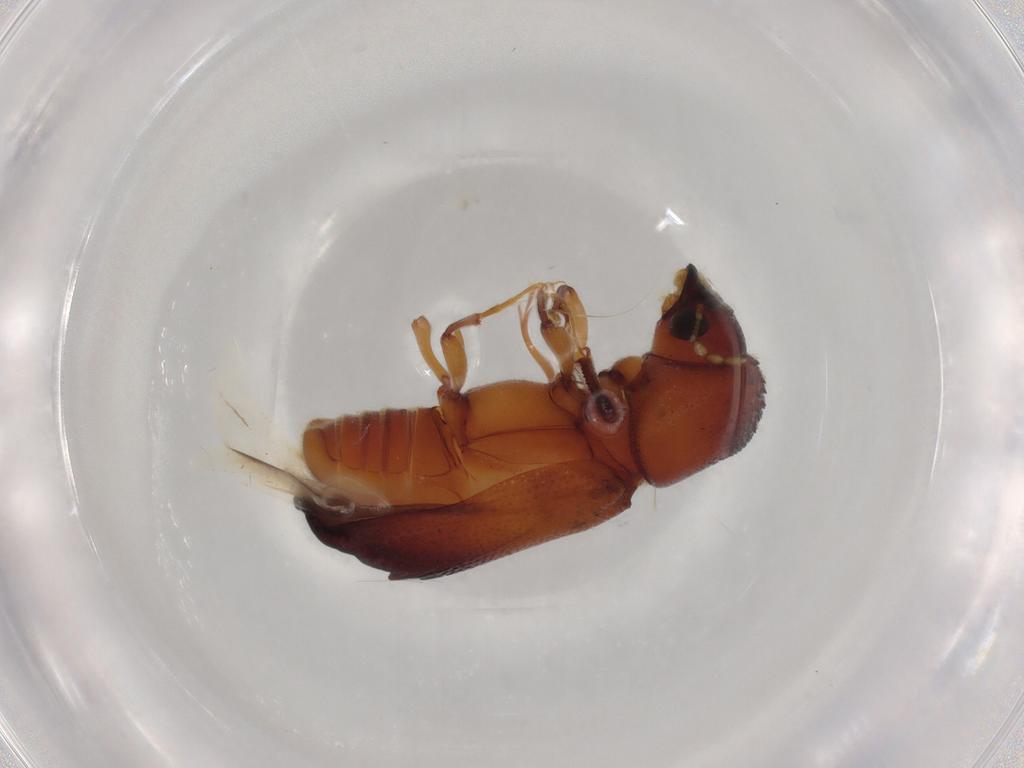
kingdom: Animalia
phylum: Arthropoda
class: Insecta
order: Coleoptera
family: Bostrichidae
